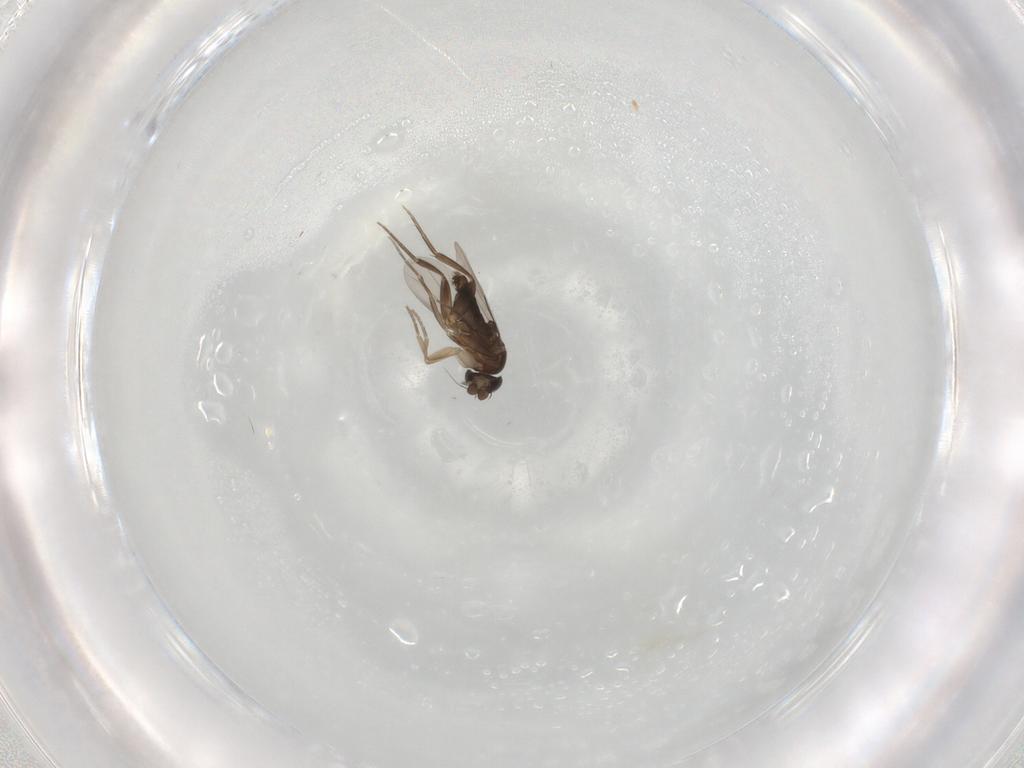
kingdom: Animalia
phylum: Arthropoda
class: Insecta
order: Diptera
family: Phoridae
